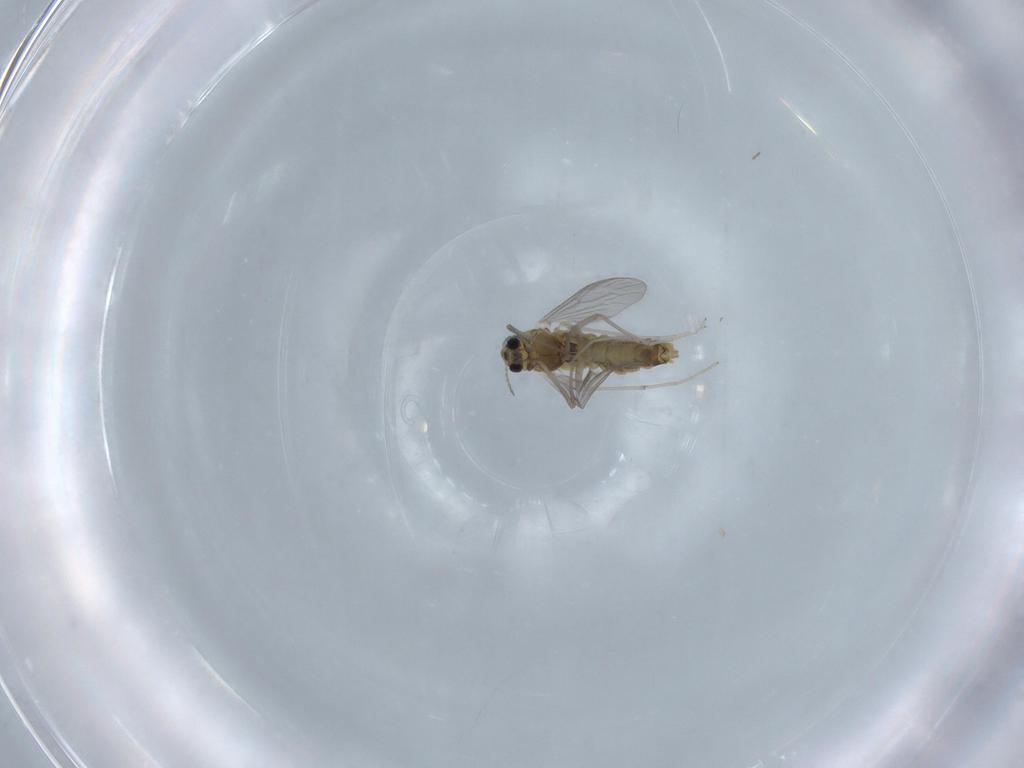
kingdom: Animalia
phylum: Arthropoda
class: Insecta
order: Diptera
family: Chironomidae
